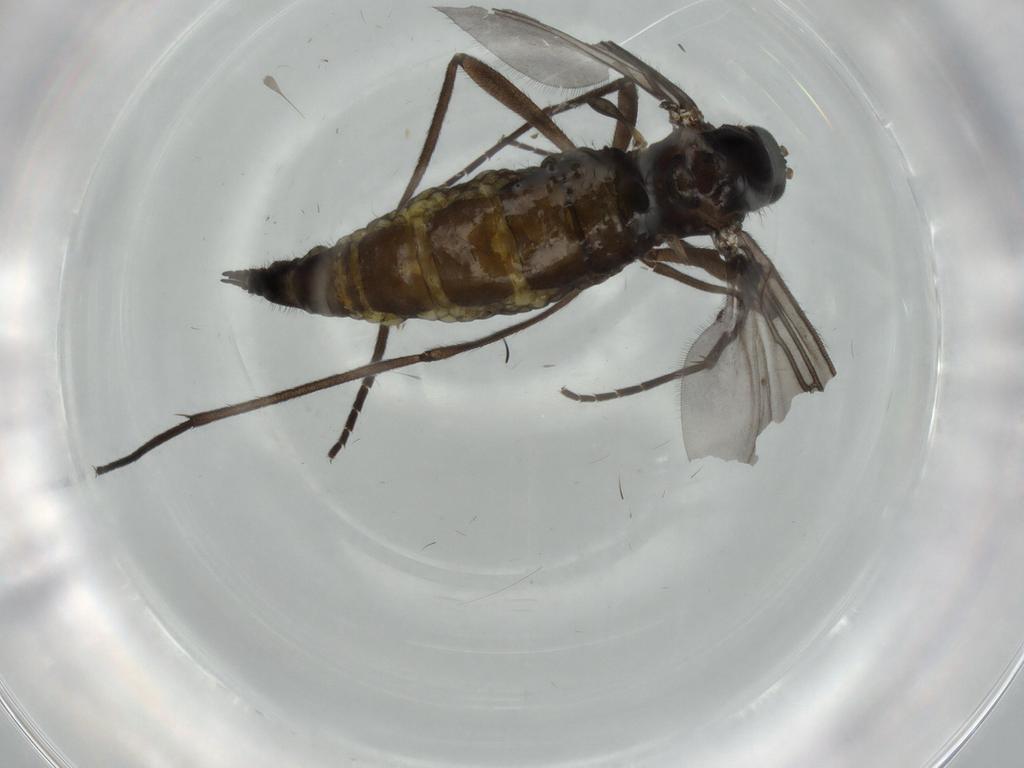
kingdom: Animalia
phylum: Arthropoda
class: Insecta
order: Diptera
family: Sciaridae
